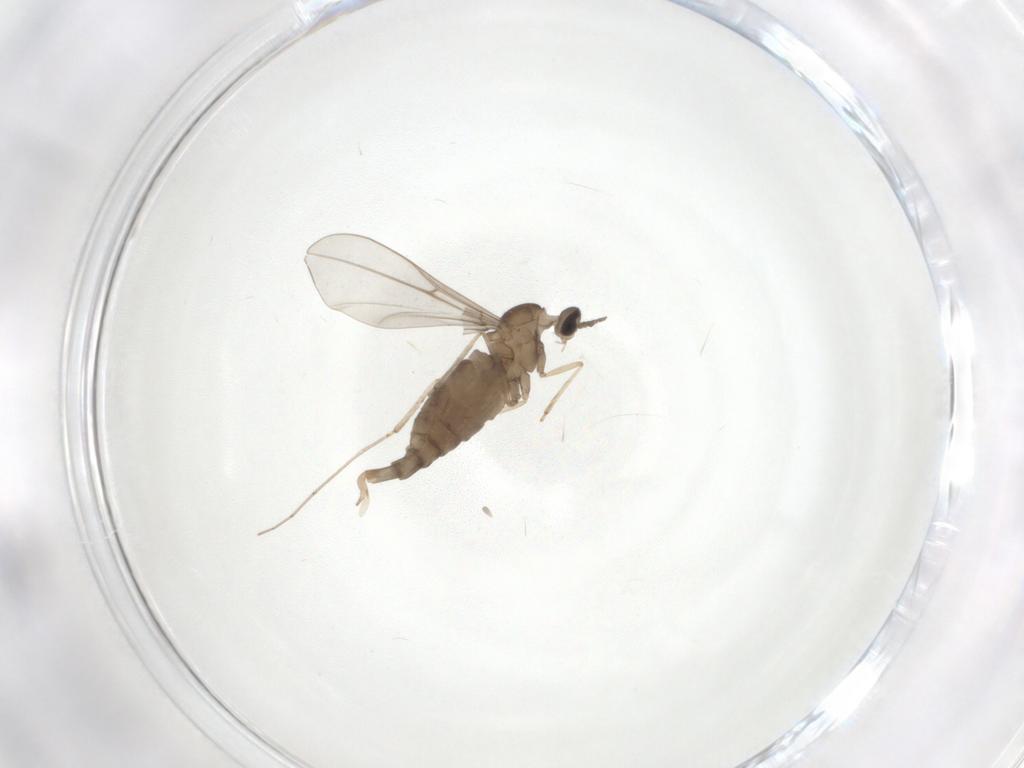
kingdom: Animalia
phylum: Arthropoda
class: Insecta
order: Diptera
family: Cecidomyiidae
